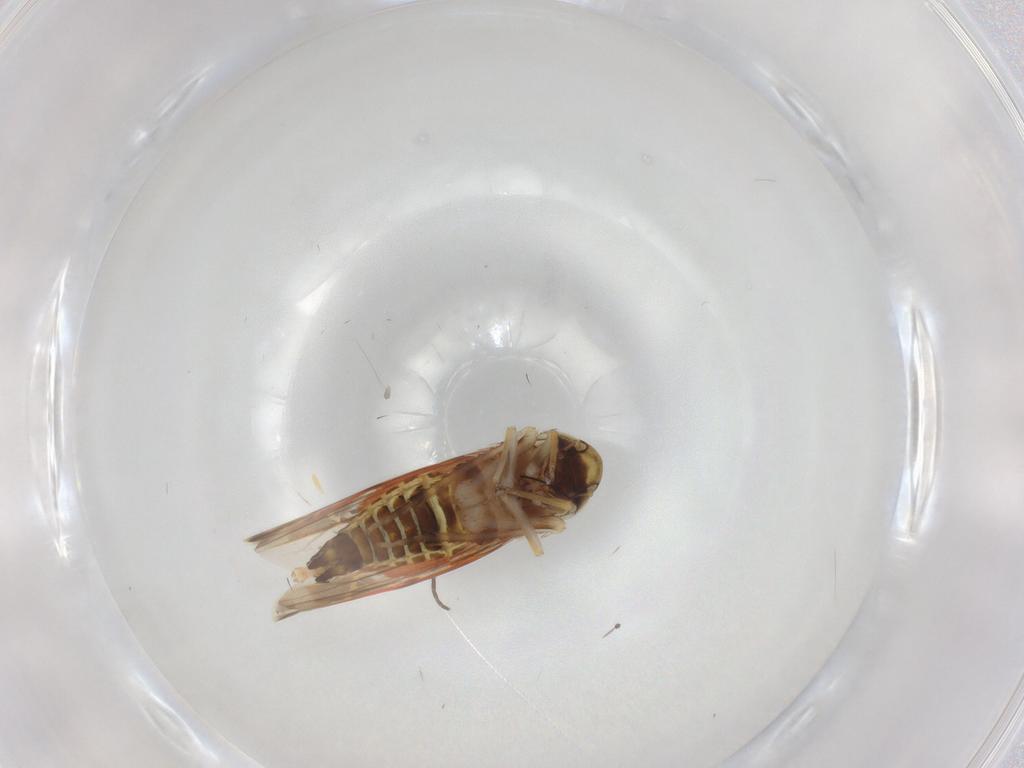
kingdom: Animalia
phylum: Arthropoda
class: Insecta
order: Hemiptera
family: Cicadellidae
